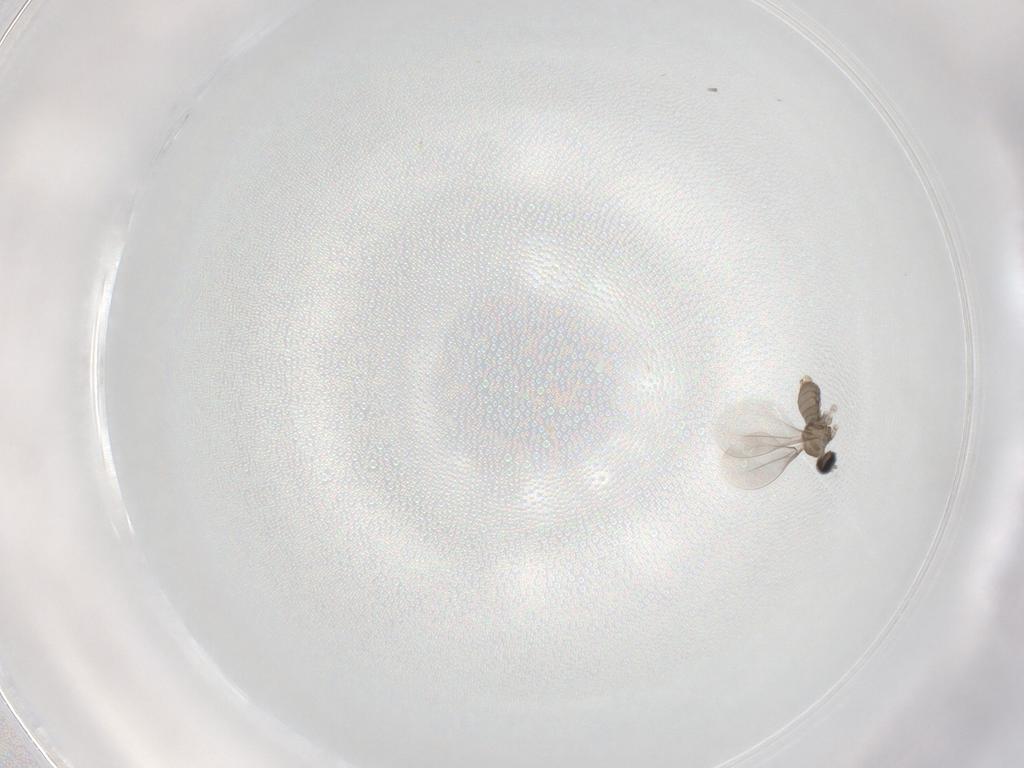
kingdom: Animalia
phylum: Arthropoda
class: Insecta
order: Diptera
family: Cecidomyiidae
